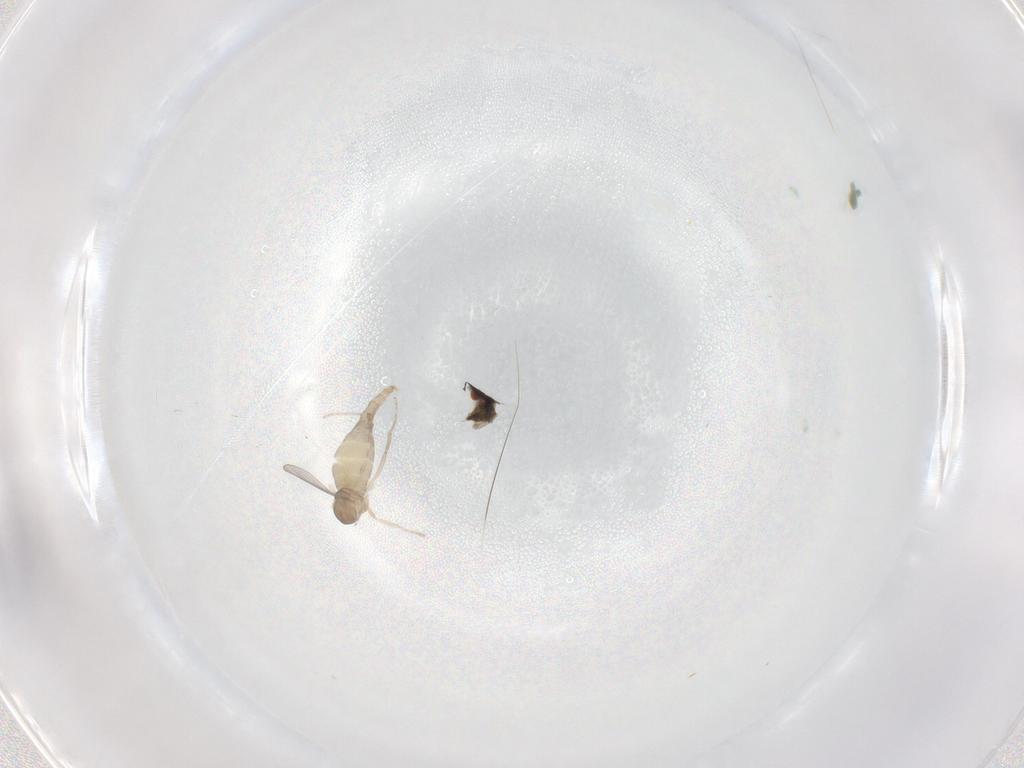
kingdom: Animalia
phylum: Arthropoda
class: Insecta
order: Diptera
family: Cecidomyiidae
